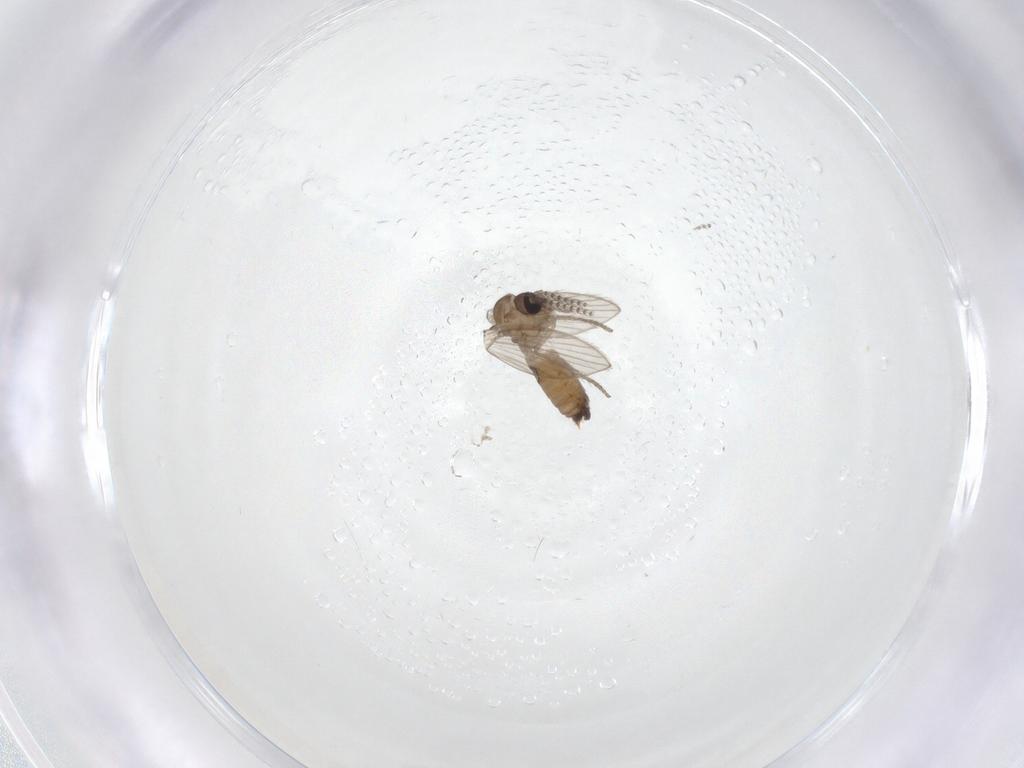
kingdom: Animalia
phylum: Arthropoda
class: Insecta
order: Diptera
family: Psychodidae
